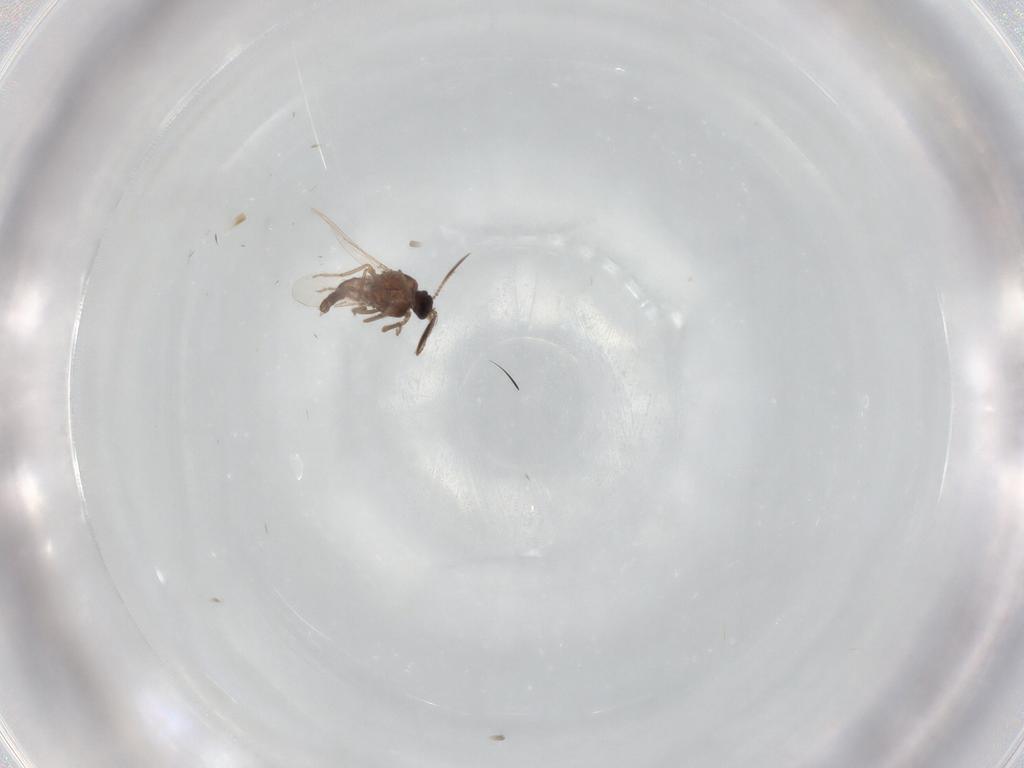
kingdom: Animalia
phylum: Arthropoda
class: Insecta
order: Diptera
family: Ceratopogonidae
